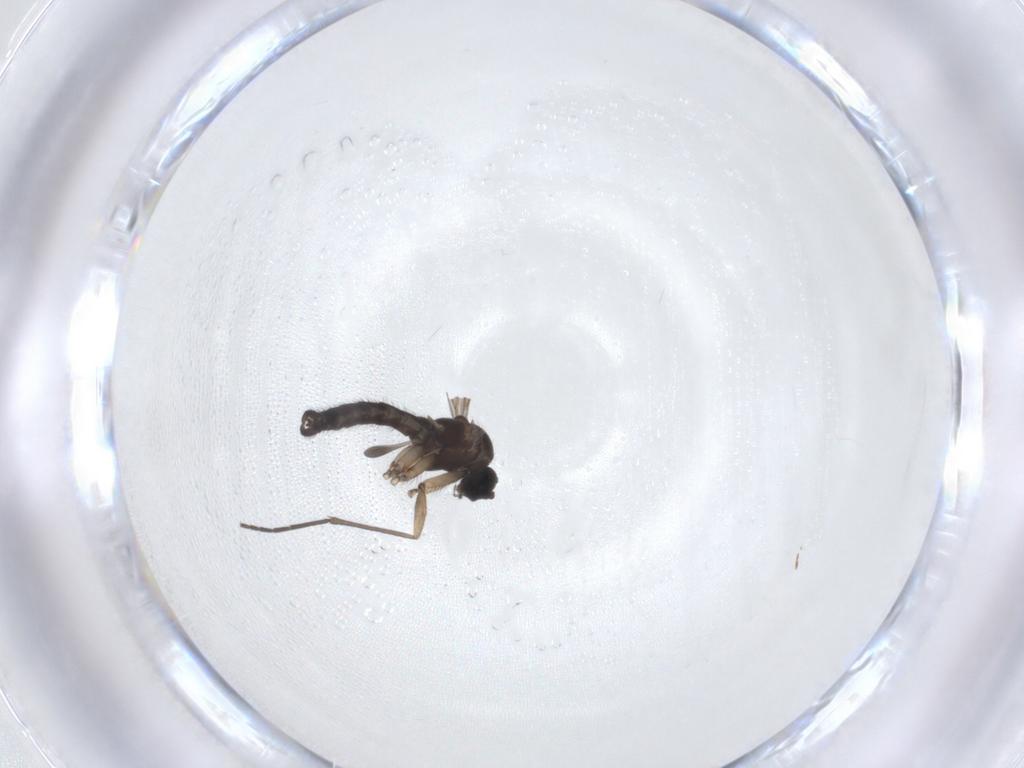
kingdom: Animalia
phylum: Arthropoda
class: Insecta
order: Diptera
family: Sciaridae
